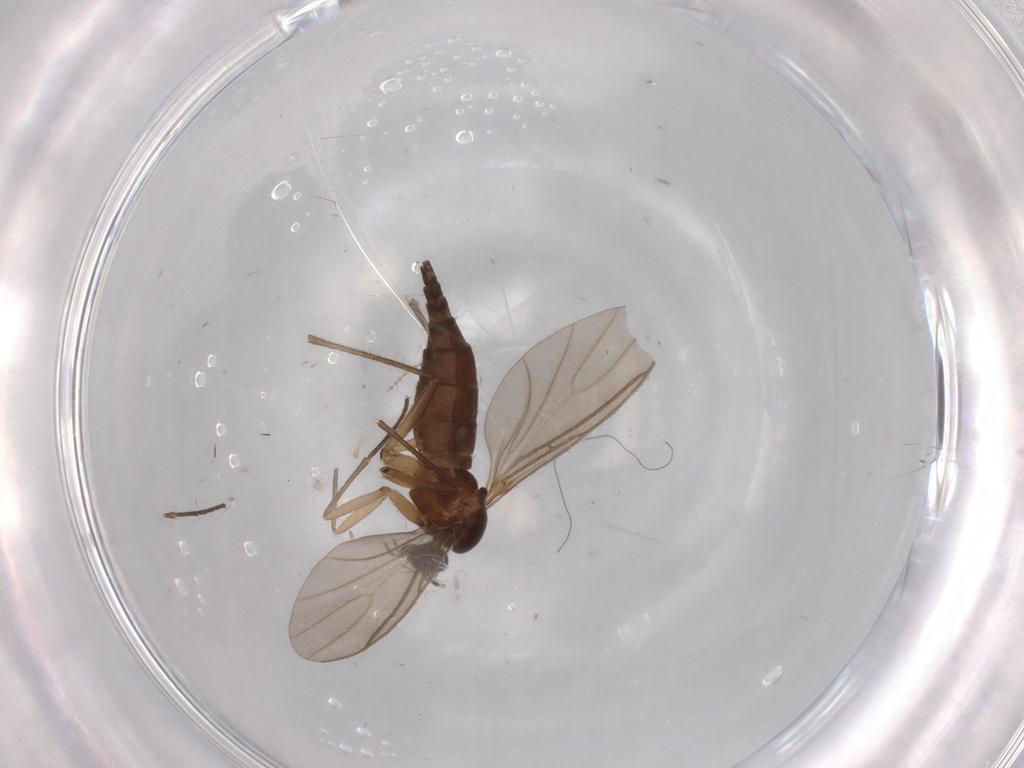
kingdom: Animalia
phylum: Arthropoda
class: Insecta
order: Diptera
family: Sciaridae
